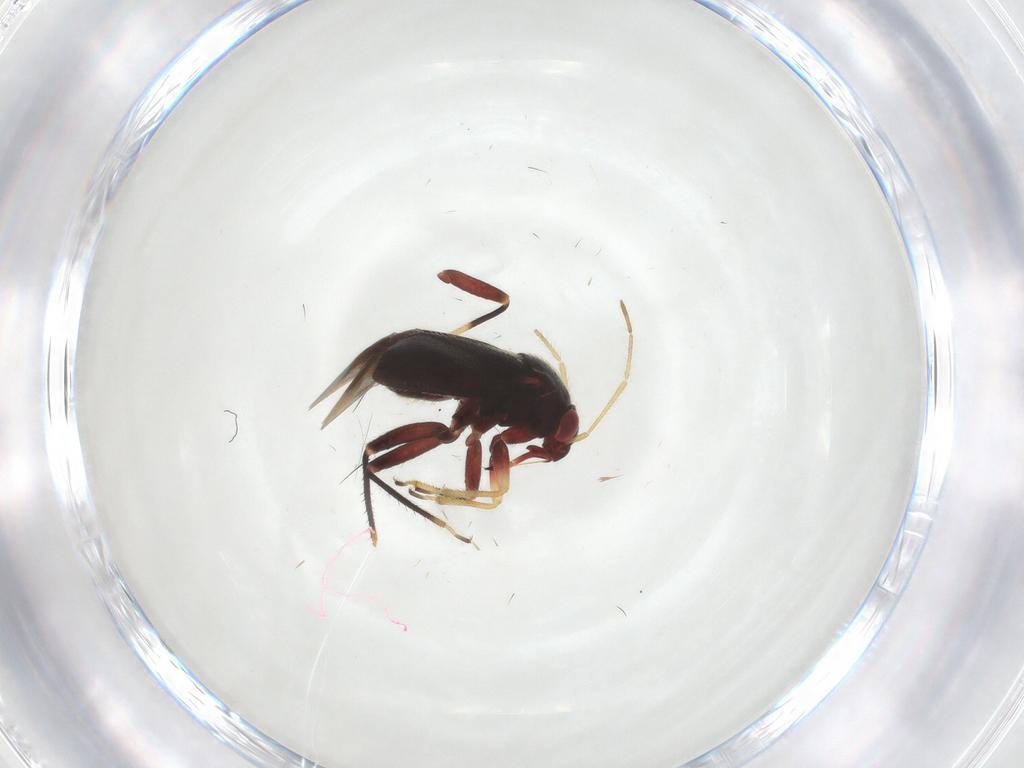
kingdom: Animalia
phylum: Arthropoda
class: Insecta
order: Hemiptera
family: Miridae
